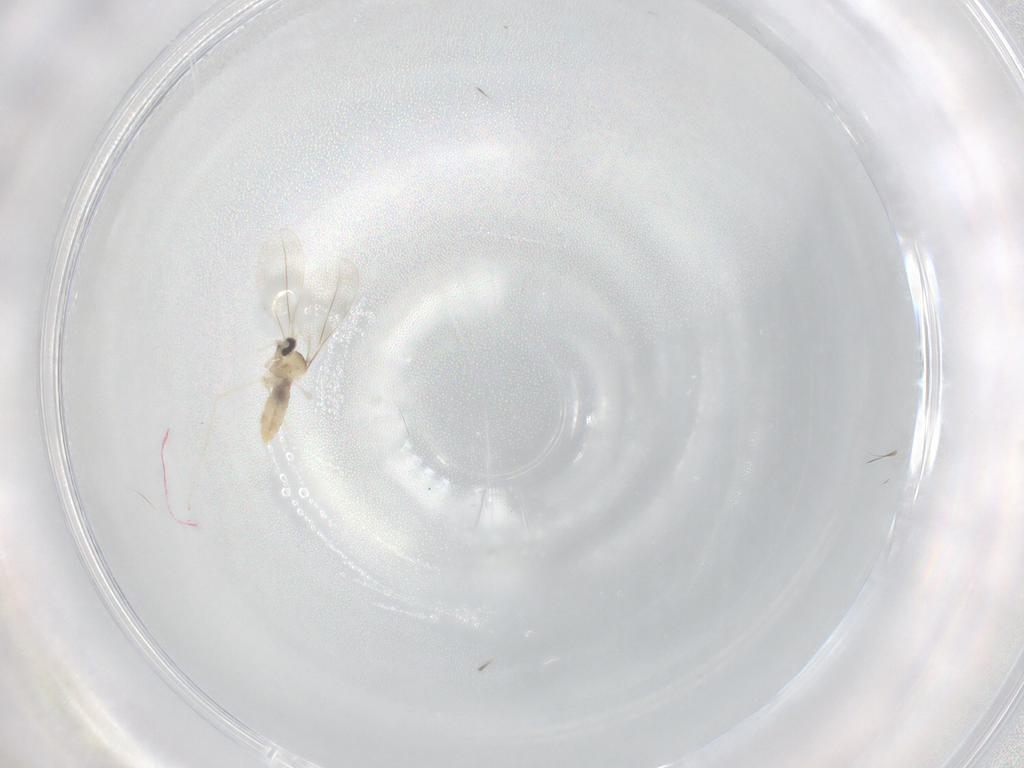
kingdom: Animalia
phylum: Arthropoda
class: Insecta
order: Diptera
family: Cecidomyiidae
